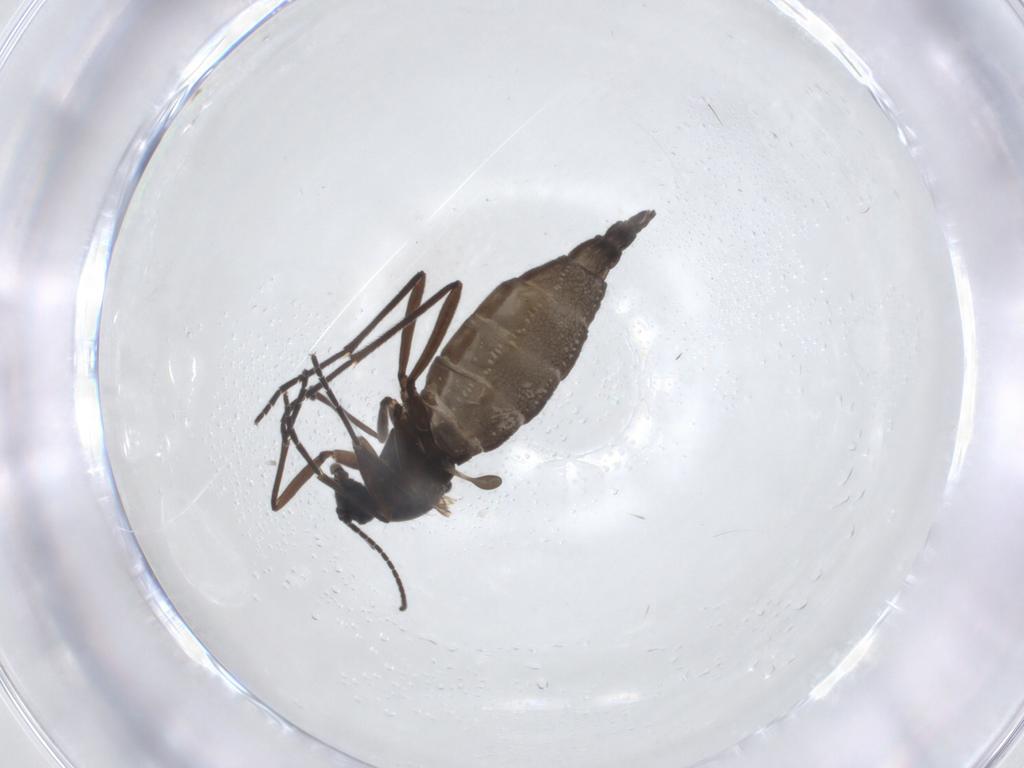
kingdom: Animalia
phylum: Arthropoda
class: Insecta
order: Diptera
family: Sciaridae
